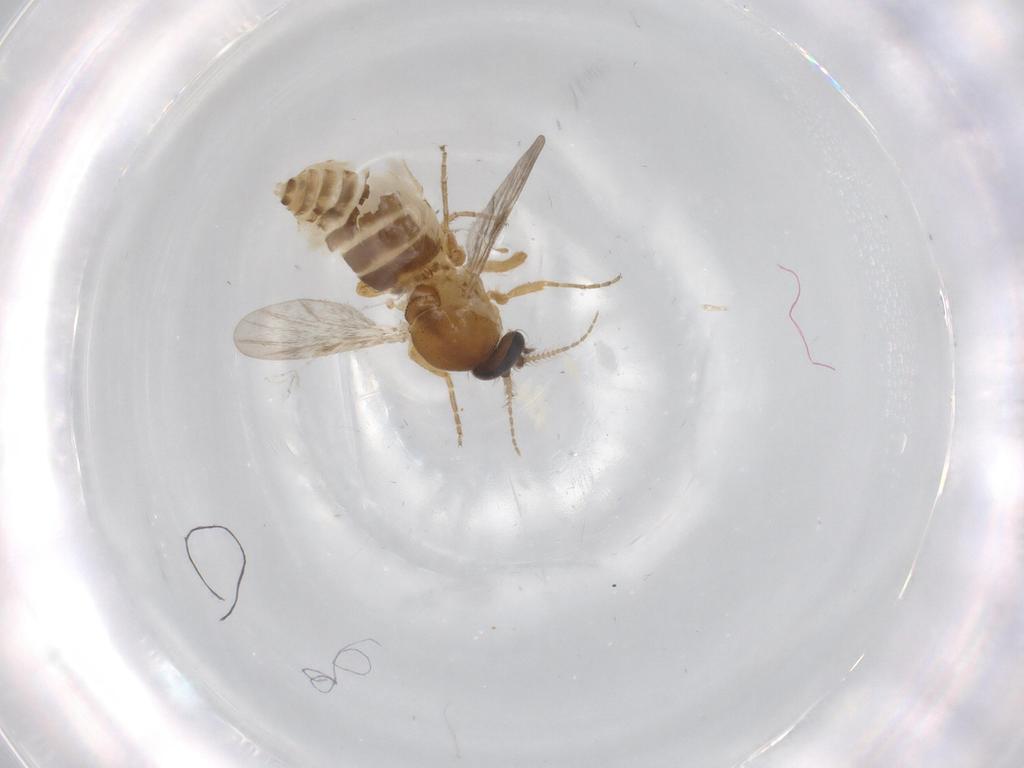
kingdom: Animalia
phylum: Arthropoda
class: Insecta
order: Diptera
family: Ceratopogonidae
